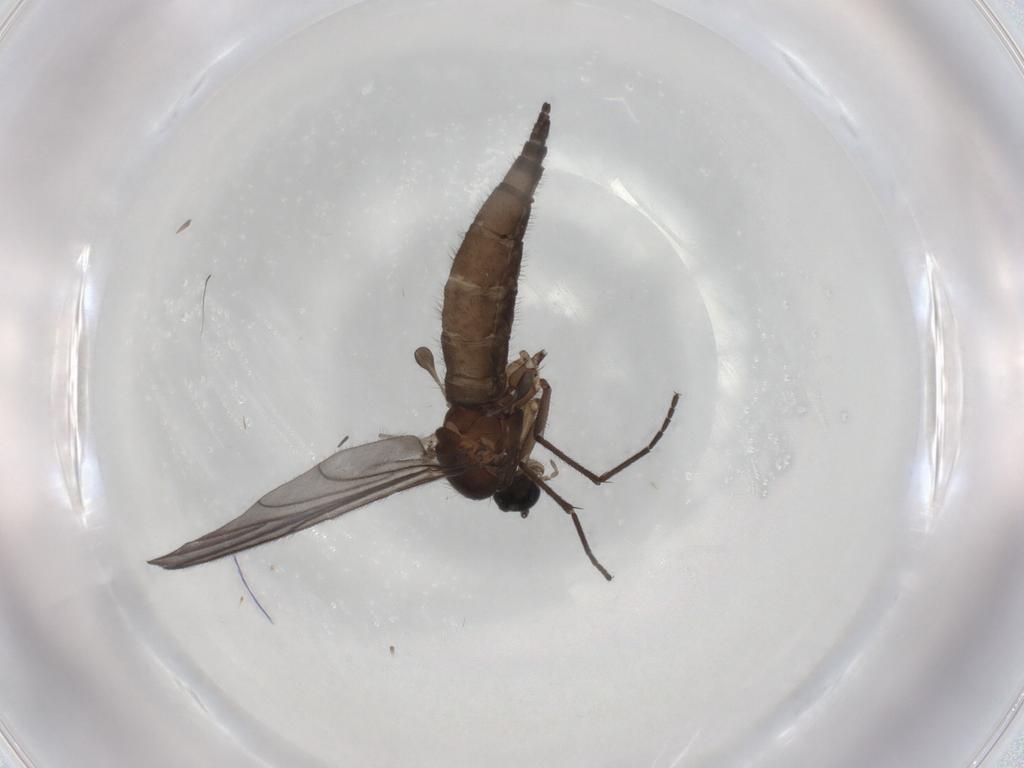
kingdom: Animalia
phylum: Arthropoda
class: Insecta
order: Diptera
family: Sciaridae
